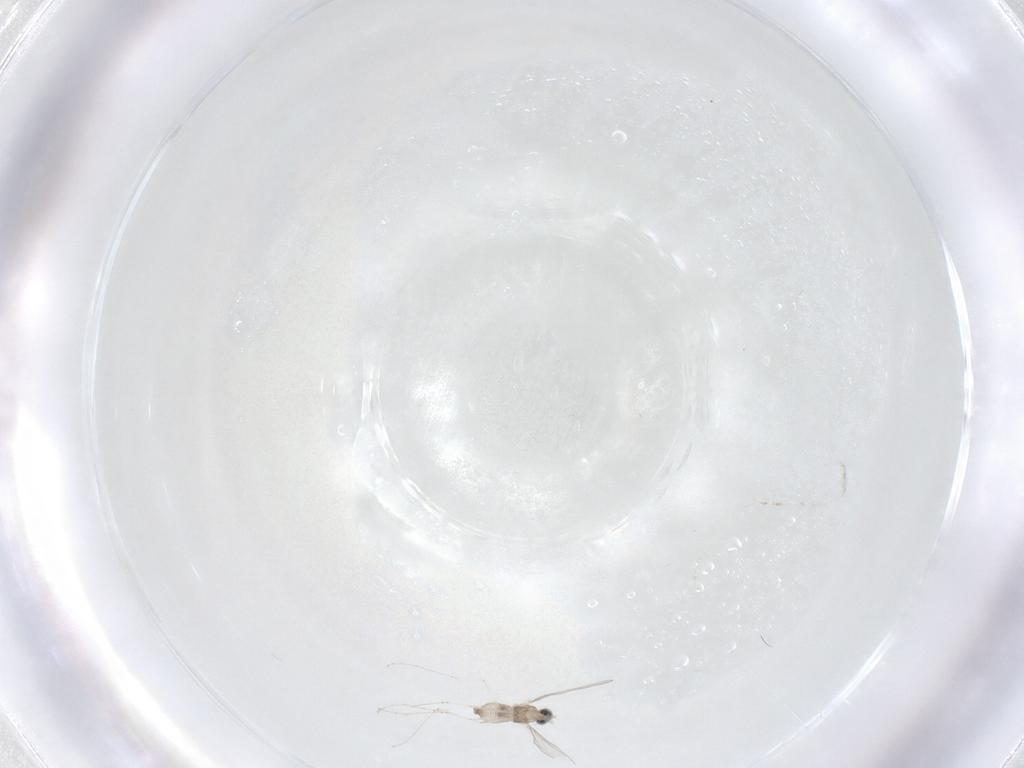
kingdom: Animalia
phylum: Arthropoda
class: Insecta
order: Diptera
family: Cecidomyiidae
